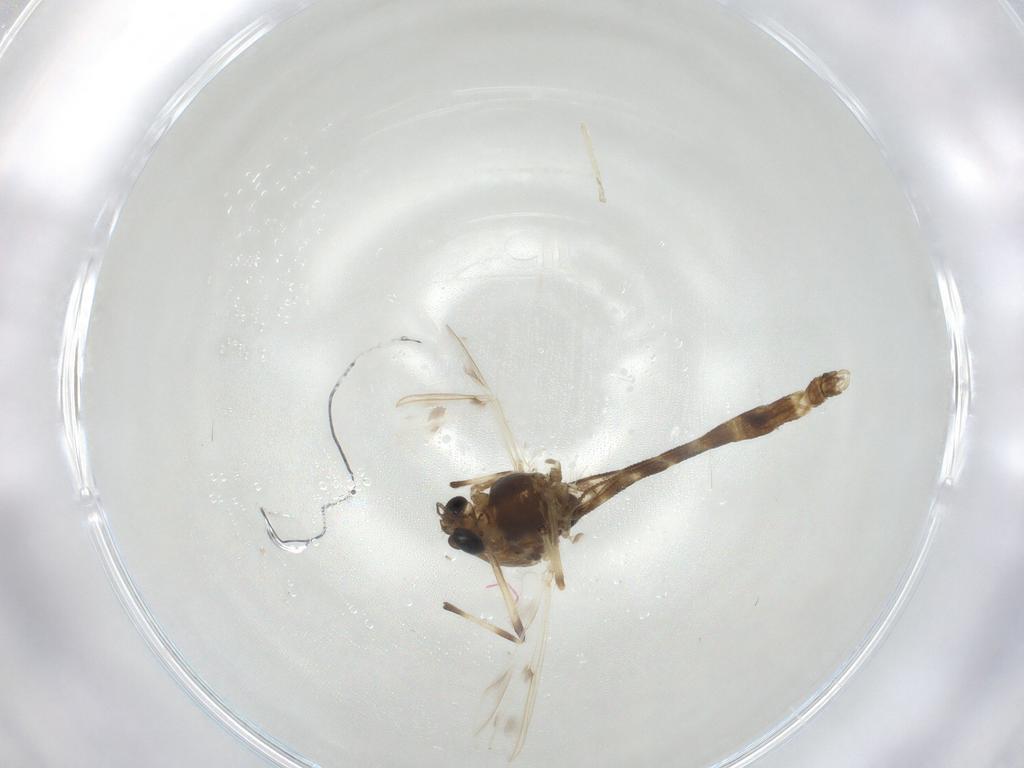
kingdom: Animalia
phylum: Arthropoda
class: Insecta
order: Diptera
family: Chironomidae
